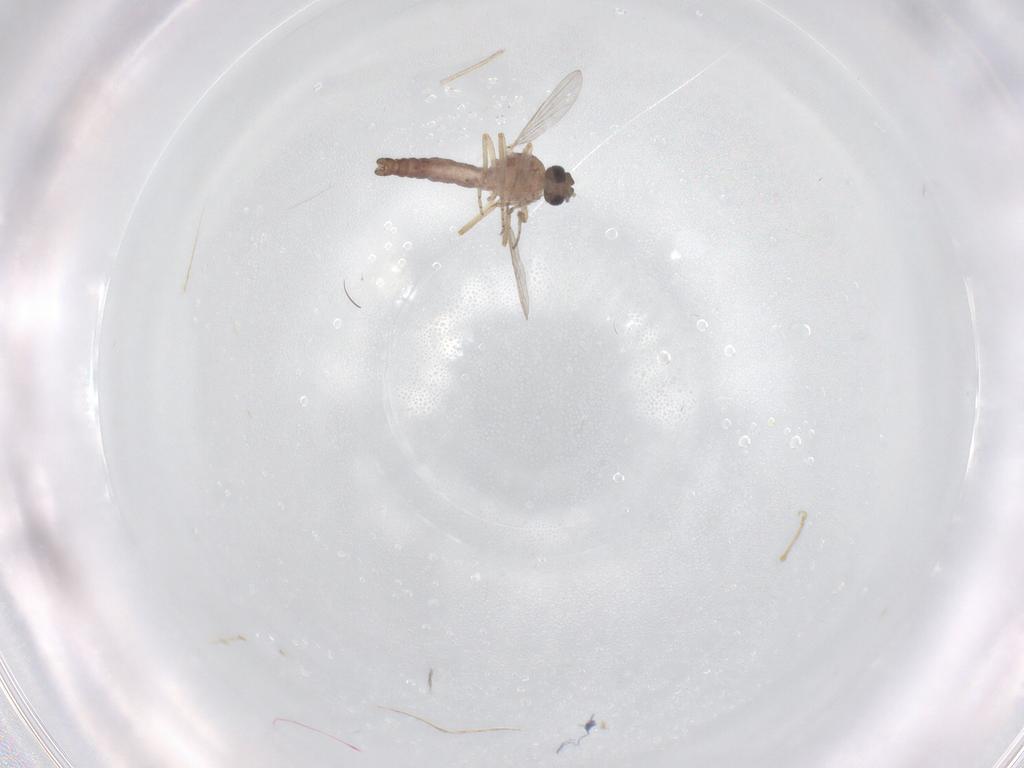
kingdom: Animalia
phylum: Arthropoda
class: Insecta
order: Diptera
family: Ceratopogonidae
